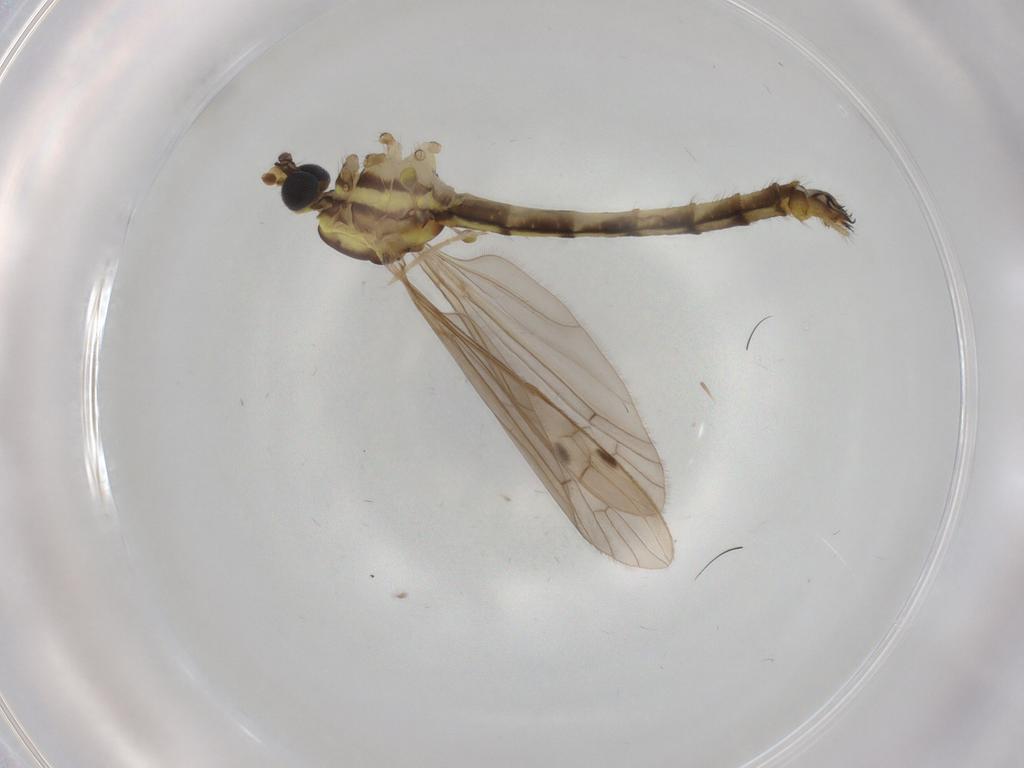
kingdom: Animalia
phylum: Arthropoda
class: Insecta
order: Diptera
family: Limoniidae
